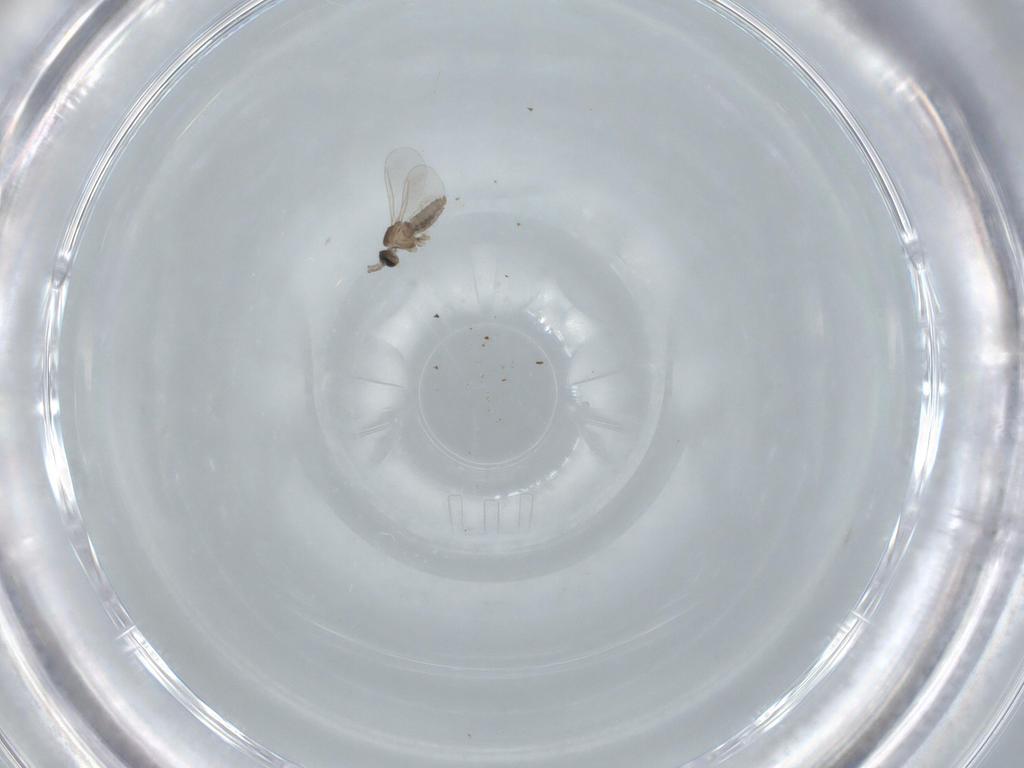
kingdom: Animalia
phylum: Arthropoda
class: Insecta
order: Diptera
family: Cecidomyiidae
